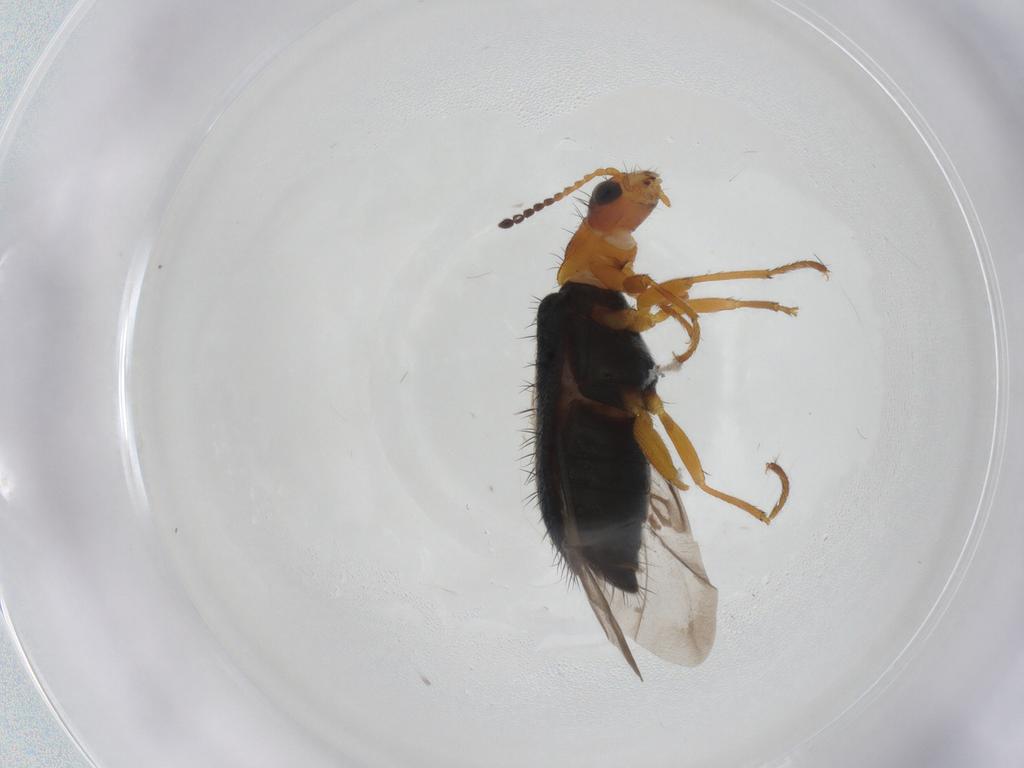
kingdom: Animalia
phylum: Arthropoda
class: Insecta
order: Coleoptera
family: Melyridae
